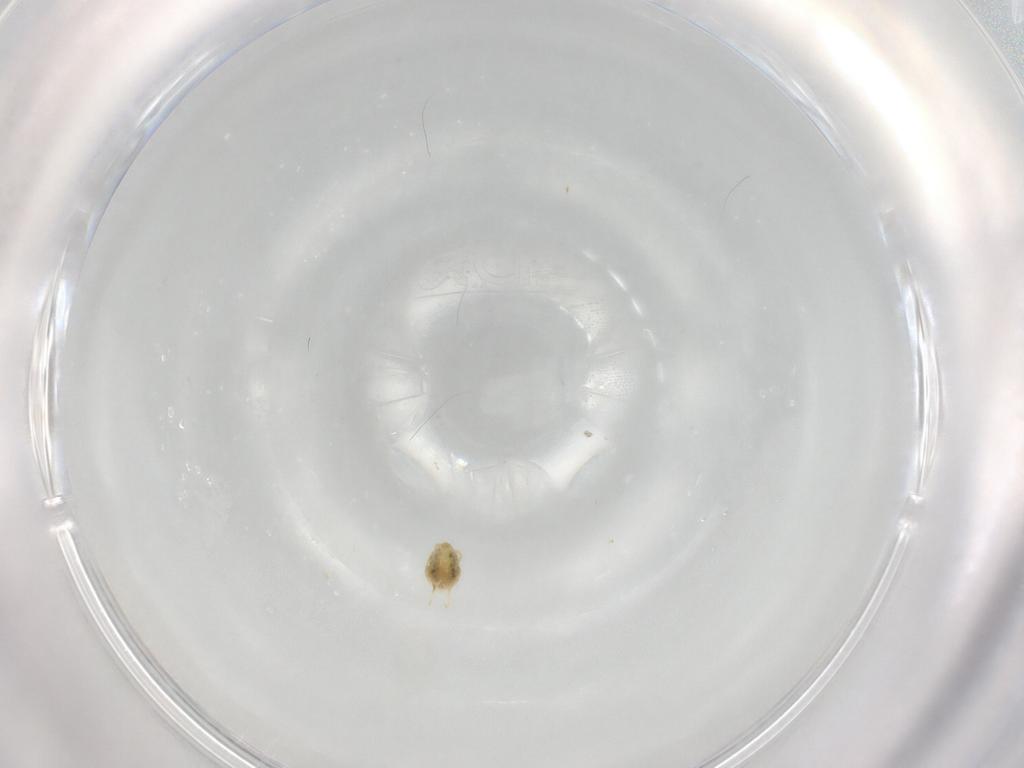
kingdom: Animalia
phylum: Arthropoda
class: Arachnida
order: Trombidiformes
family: Tetranychidae
